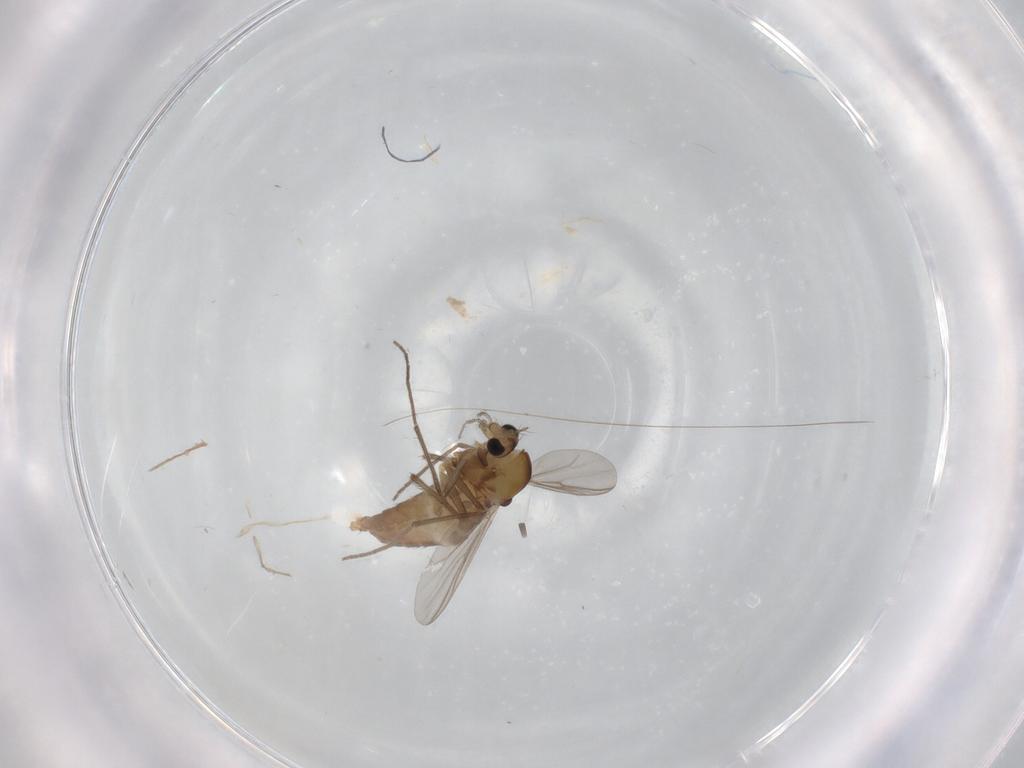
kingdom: Animalia
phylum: Arthropoda
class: Insecta
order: Diptera
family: Chironomidae
